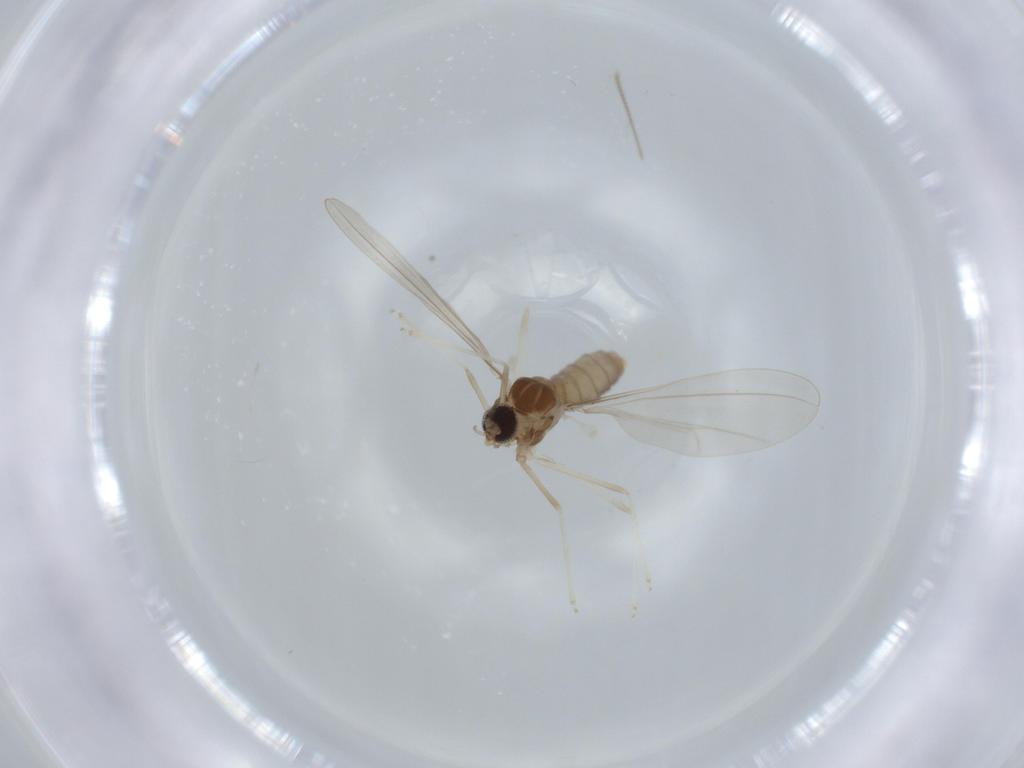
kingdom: Animalia
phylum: Arthropoda
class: Insecta
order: Diptera
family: Cecidomyiidae
